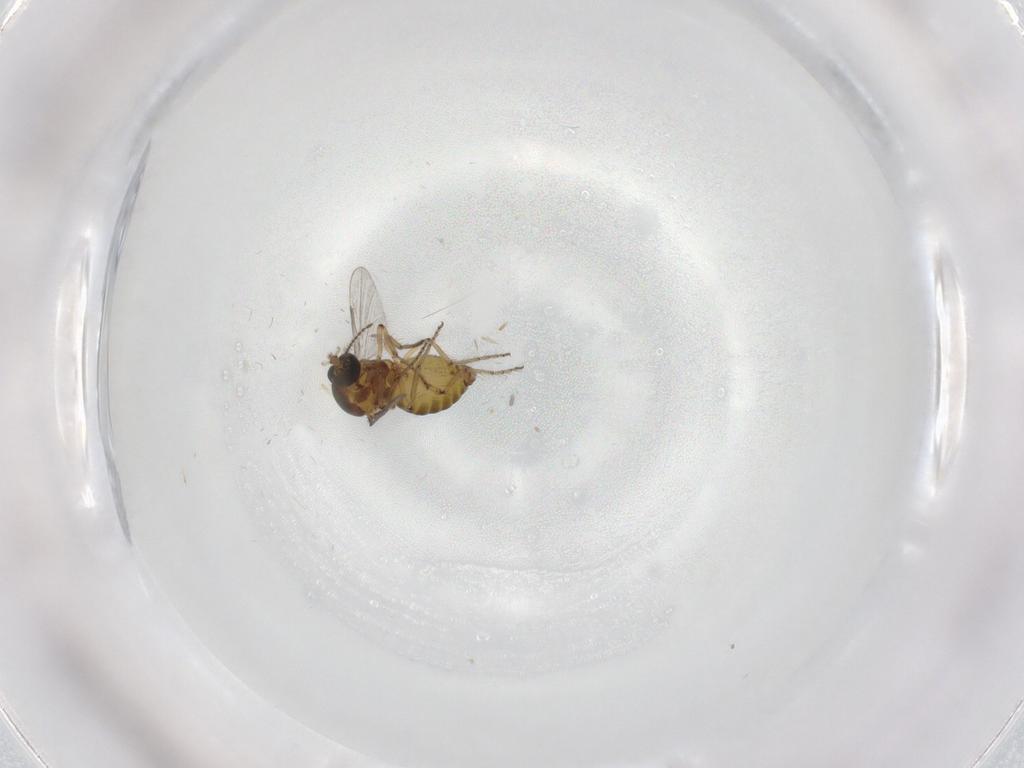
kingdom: Animalia
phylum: Arthropoda
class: Insecta
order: Diptera
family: Ceratopogonidae
